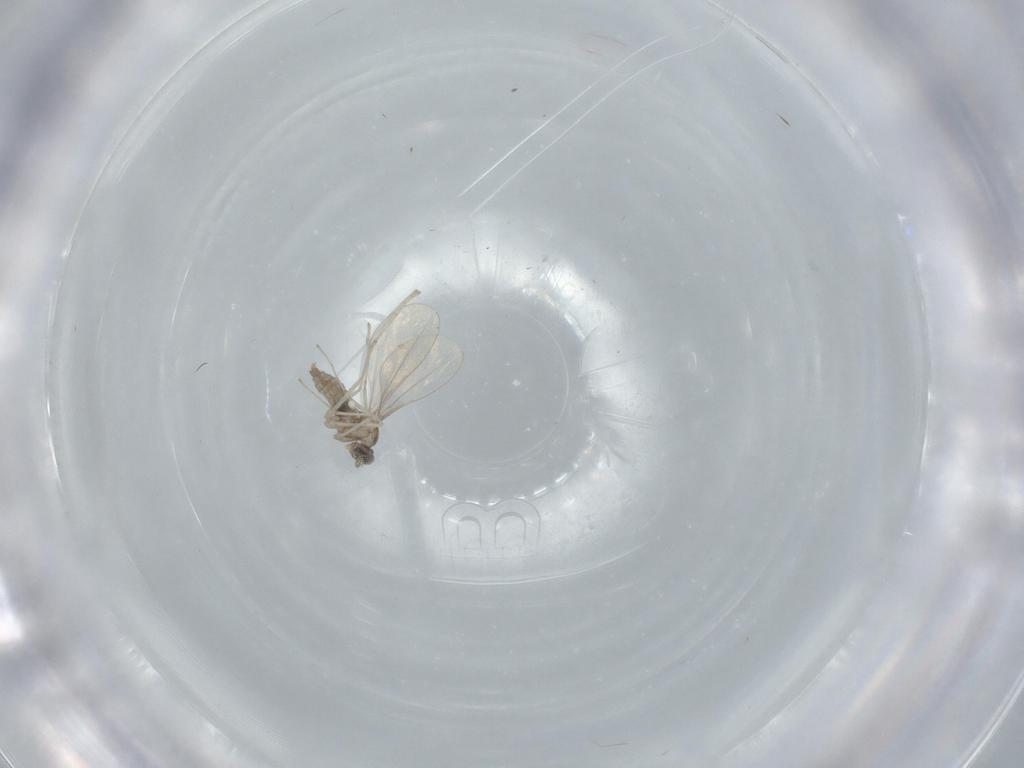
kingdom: Animalia
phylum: Arthropoda
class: Insecta
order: Diptera
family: Cecidomyiidae
